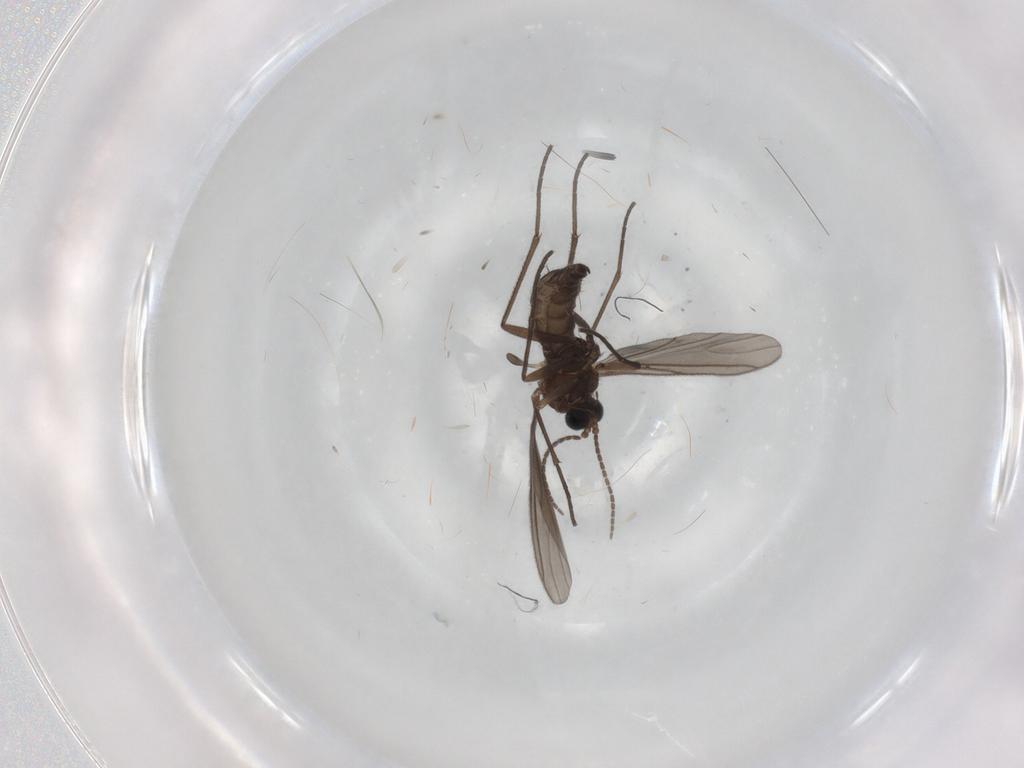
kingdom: Animalia
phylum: Arthropoda
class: Insecta
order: Diptera
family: Sciaridae
